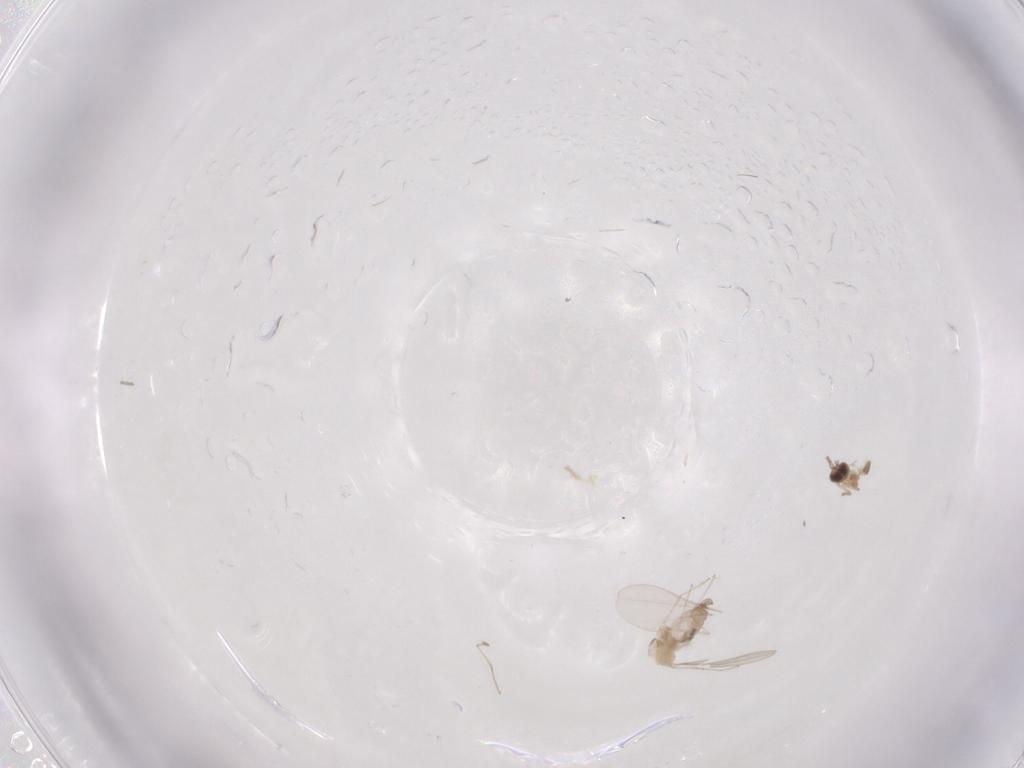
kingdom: Animalia
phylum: Arthropoda
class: Insecta
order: Diptera
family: Cecidomyiidae
